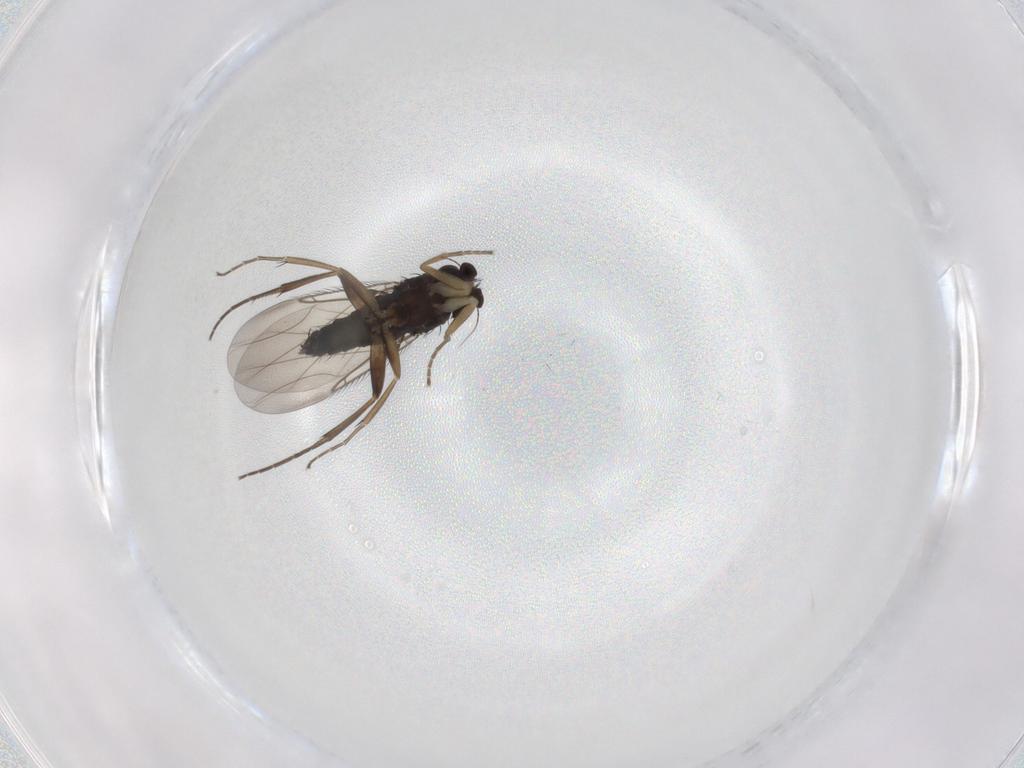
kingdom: Animalia
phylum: Arthropoda
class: Insecta
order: Diptera
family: Phoridae
